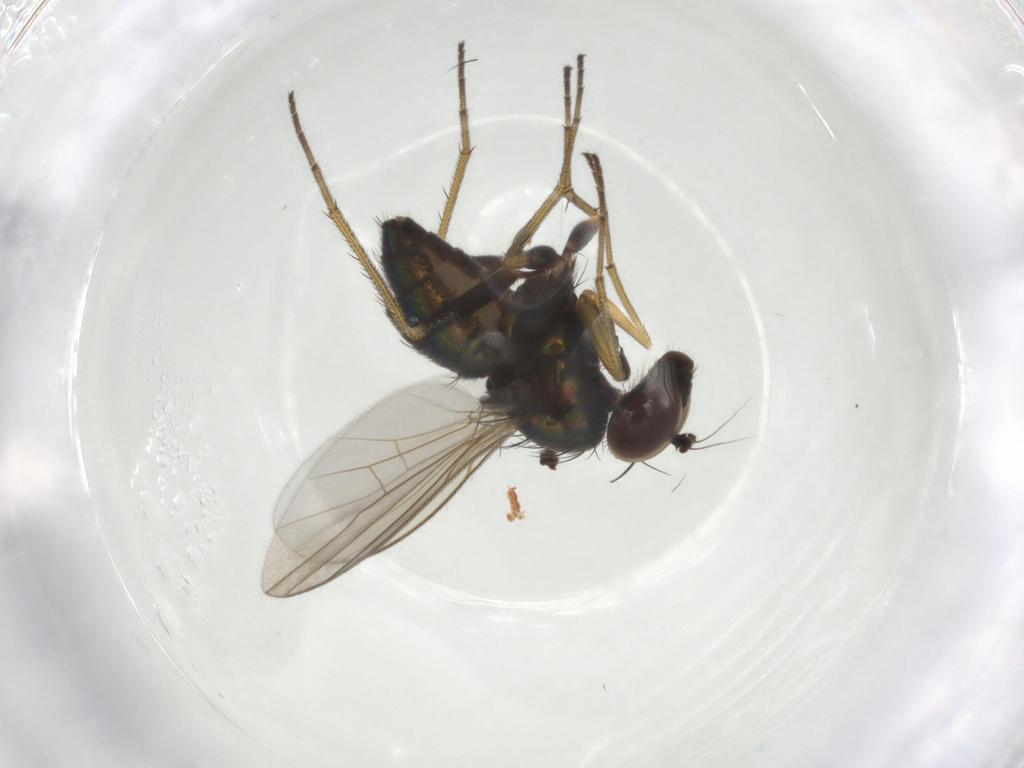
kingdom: Animalia
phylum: Arthropoda
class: Insecta
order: Diptera
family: Dolichopodidae
